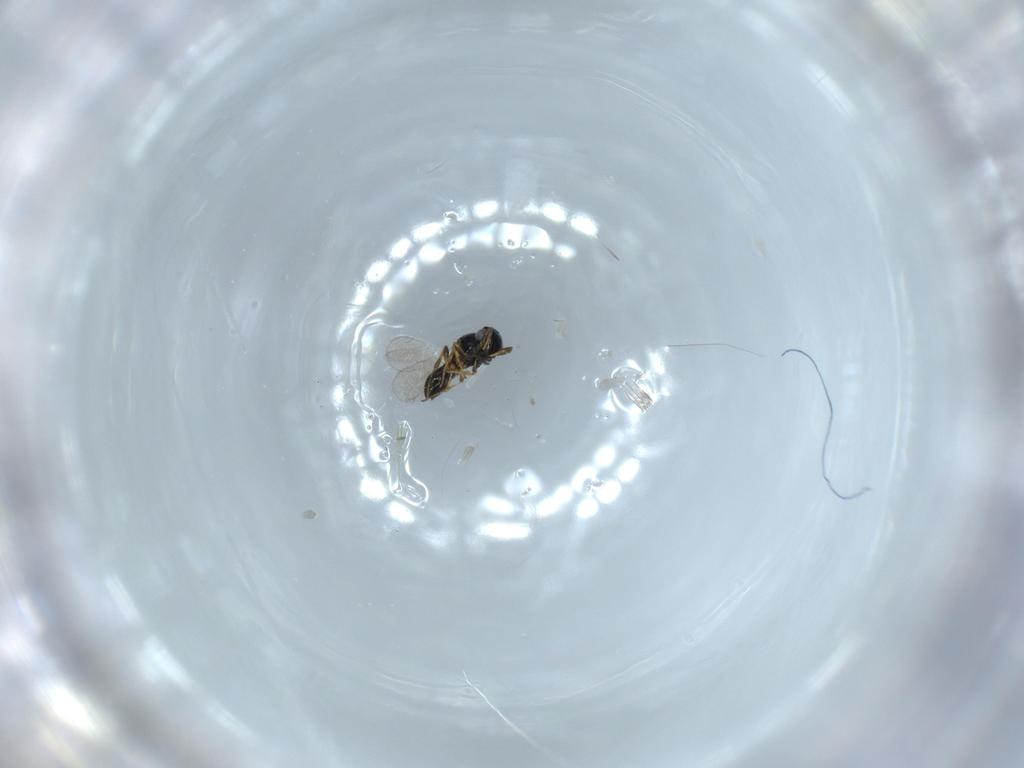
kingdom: Animalia
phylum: Arthropoda
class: Insecta
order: Hymenoptera
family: Platygastridae
